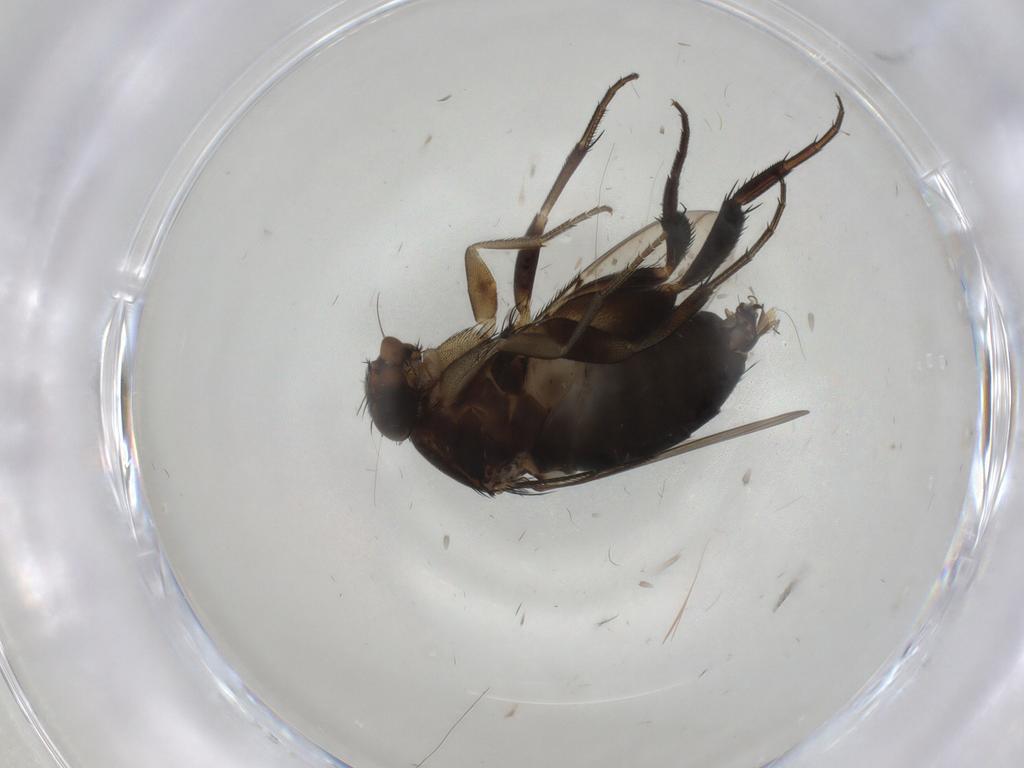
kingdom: Animalia
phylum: Arthropoda
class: Insecta
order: Diptera
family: Phoridae
